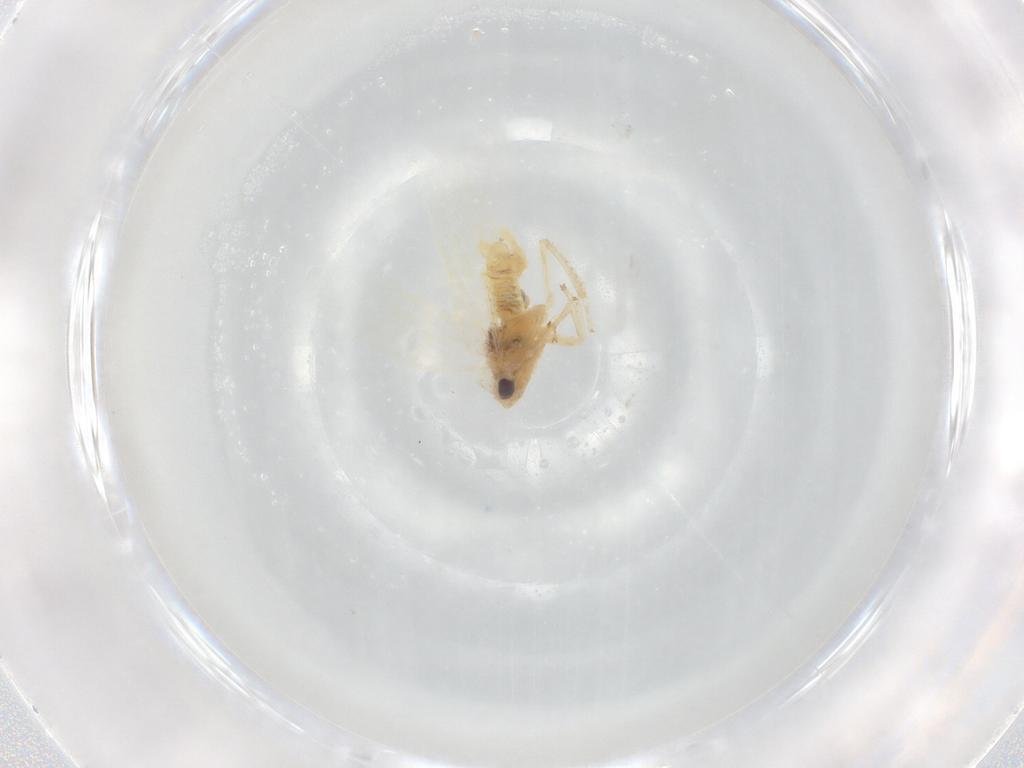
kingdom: Animalia
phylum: Arthropoda
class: Insecta
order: Hemiptera
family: Cicadellidae
